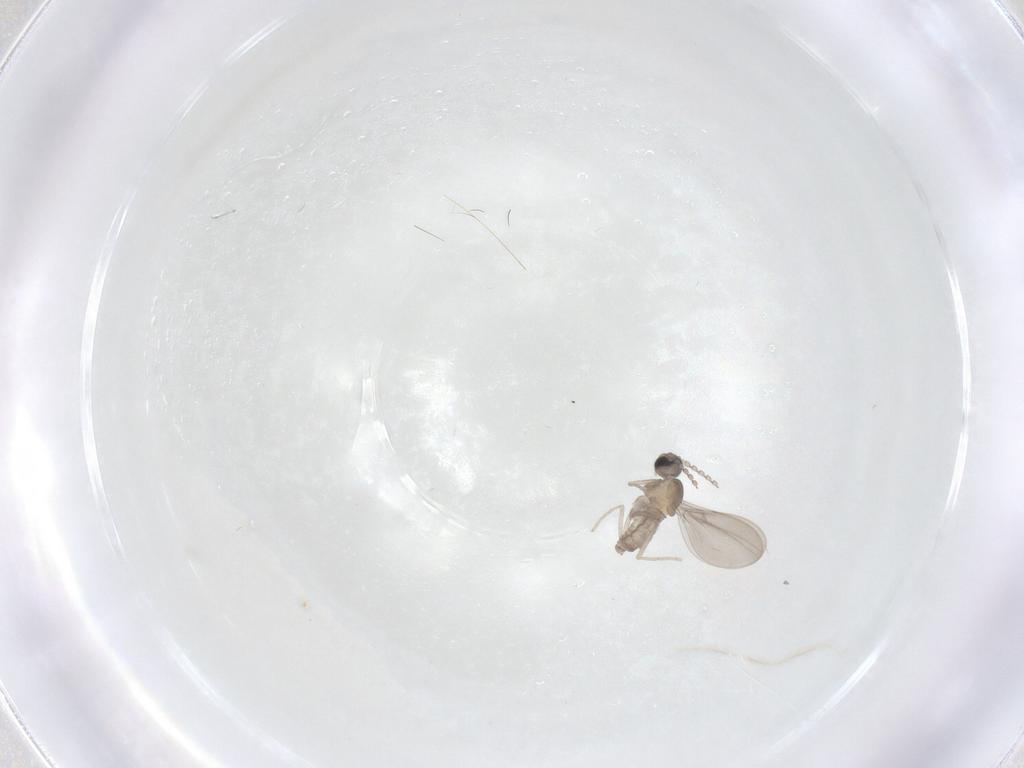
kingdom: Animalia
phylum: Arthropoda
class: Insecta
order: Diptera
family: Cecidomyiidae
